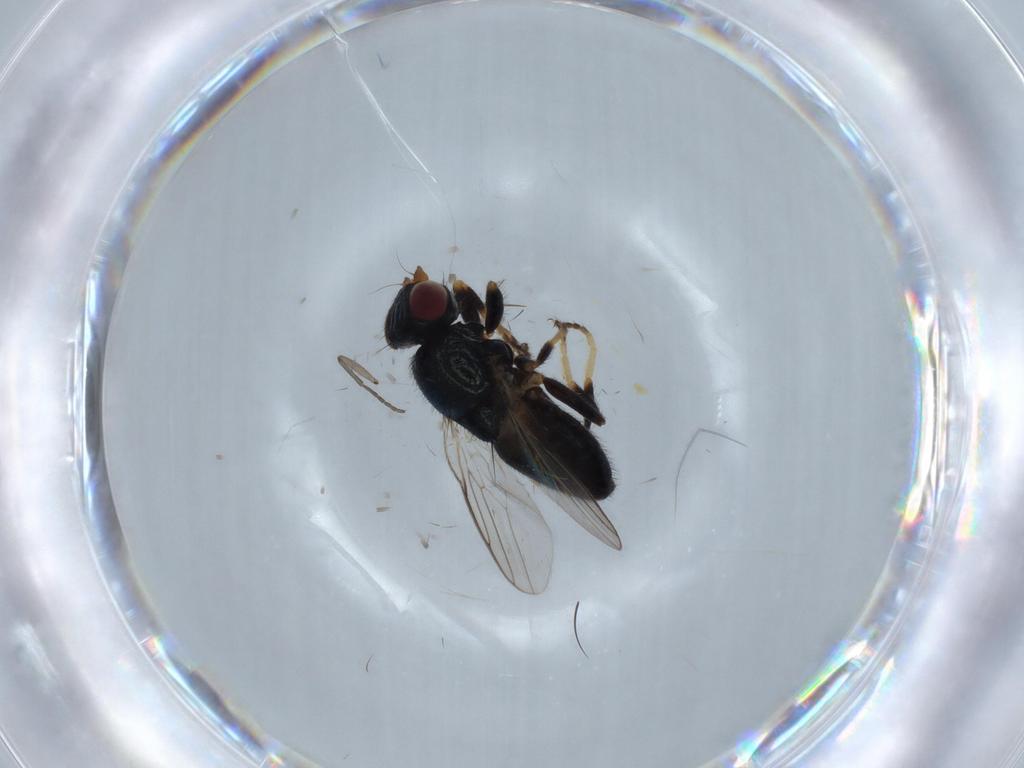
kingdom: Animalia
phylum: Arthropoda
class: Insecta
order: Diptera
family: Chloropidae
